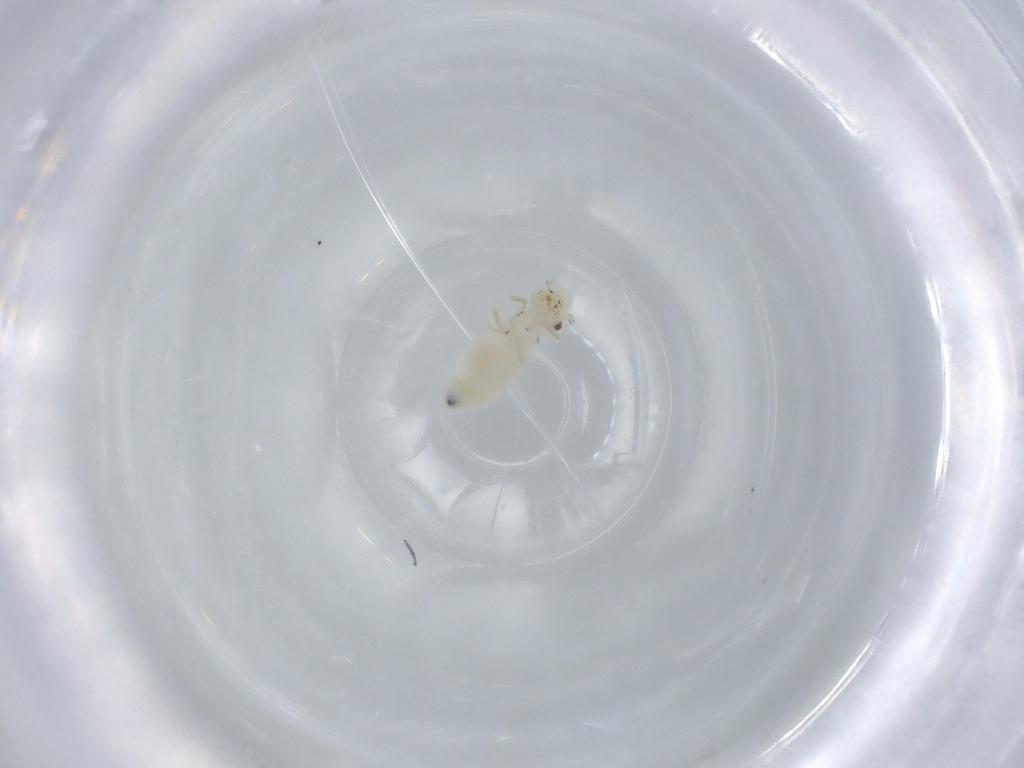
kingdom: Animalia
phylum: Arthropoda
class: Insecta
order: Psocodea
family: Caeciliusidae
